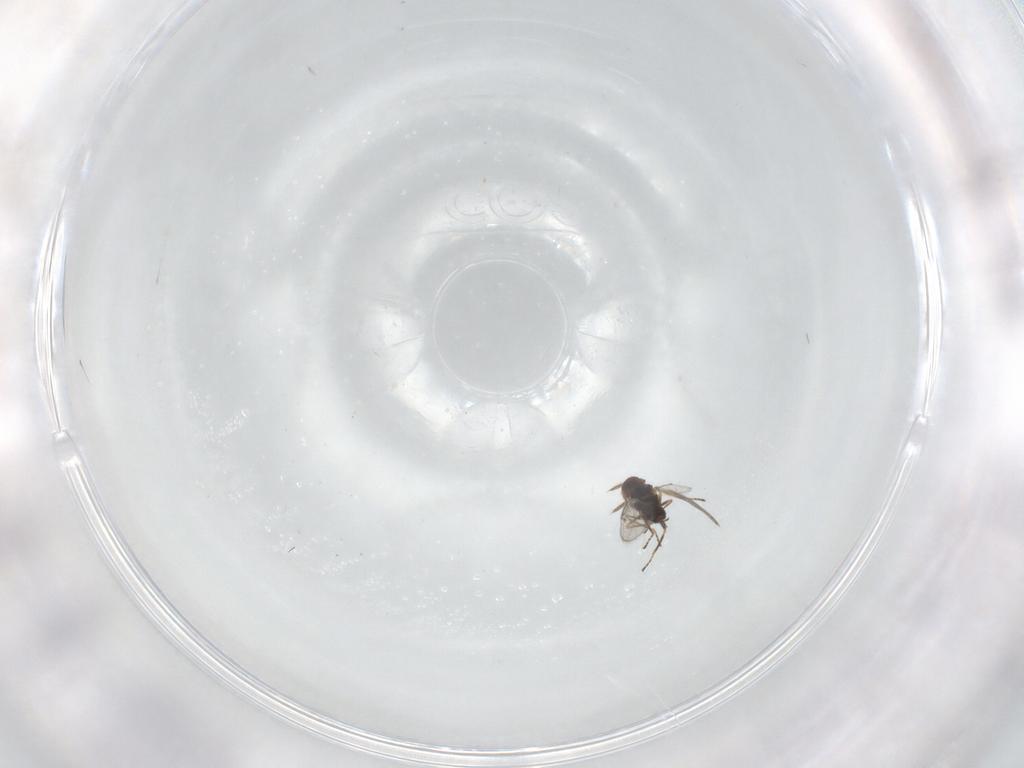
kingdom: Animalia
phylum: Arthropoda
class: Insecta
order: Hymenoptera
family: Eulophidae
